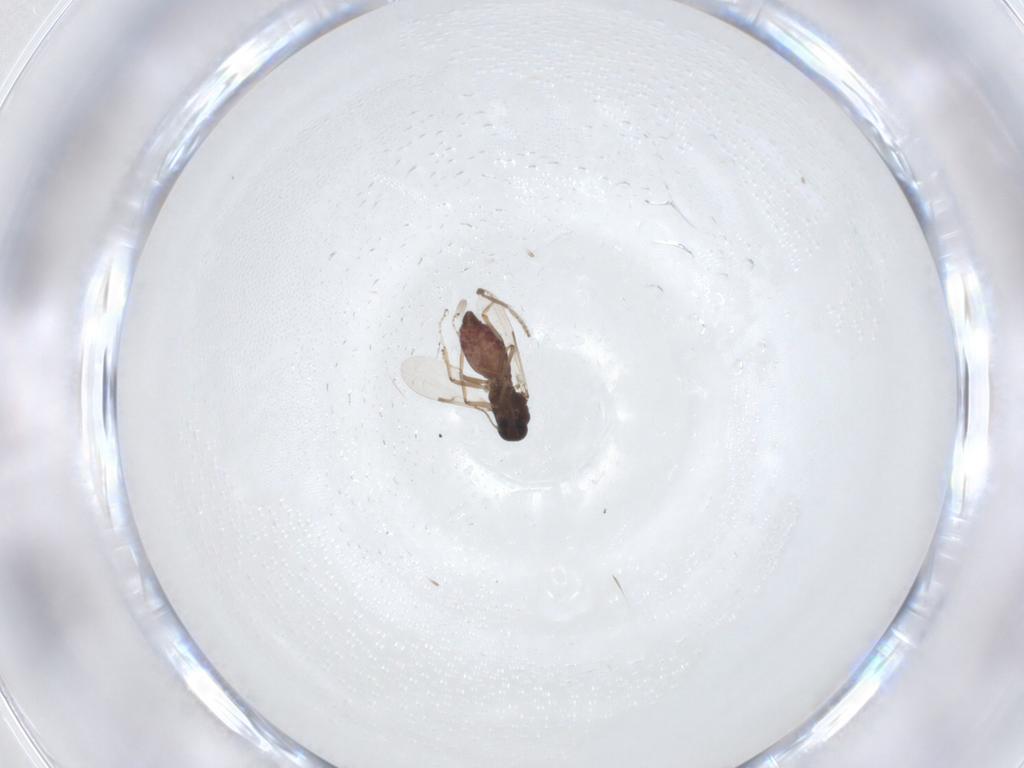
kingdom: Animalia
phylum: Arthropoda
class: Insecta
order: Diptera
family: Ceratopogonidae
